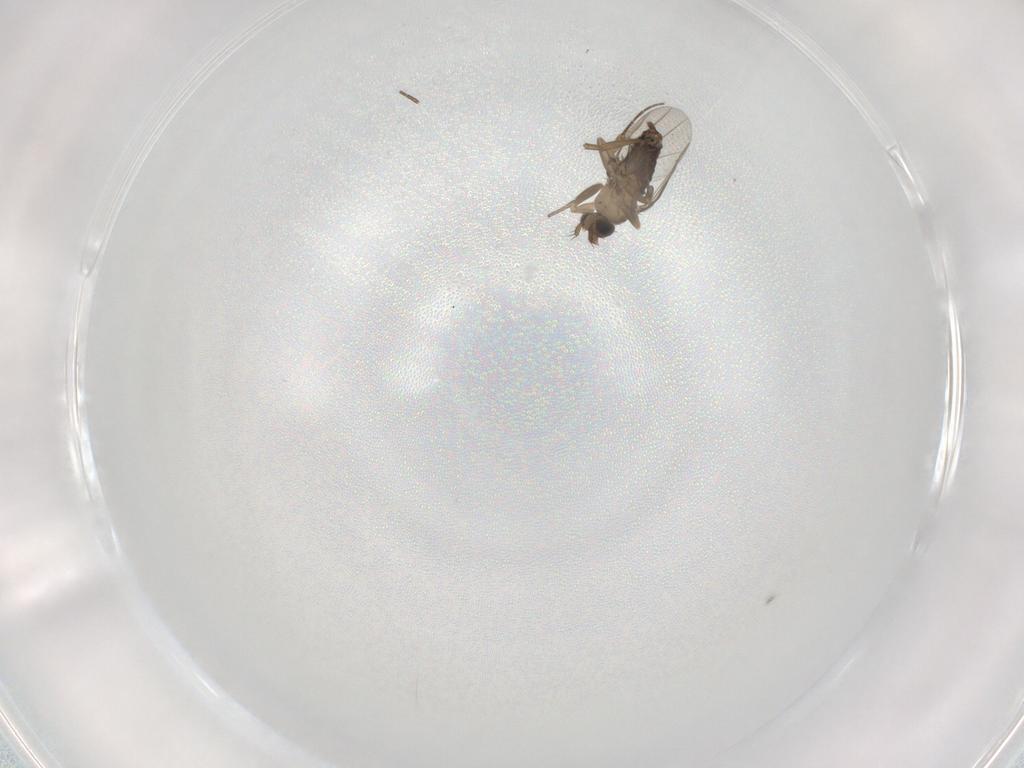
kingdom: Animalia
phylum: Arthropoda
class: Insecta
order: Diptera
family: Phoridae
